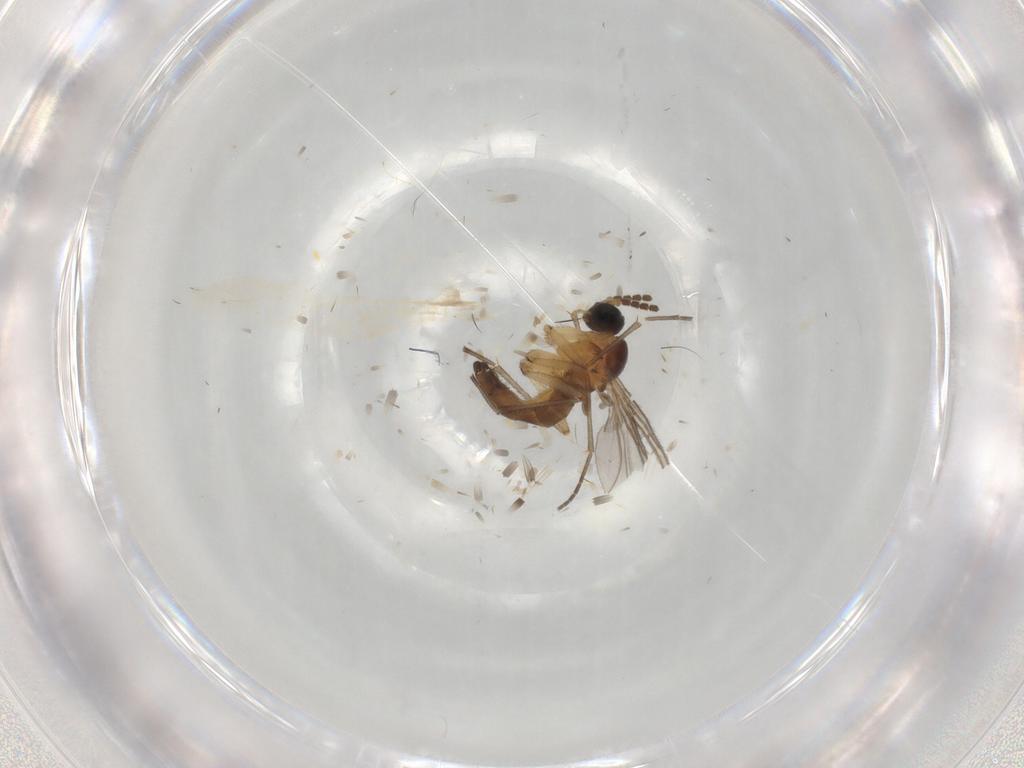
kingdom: Animalia
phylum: Arthropoda
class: Insecta
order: Diptera
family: Sciaridae
